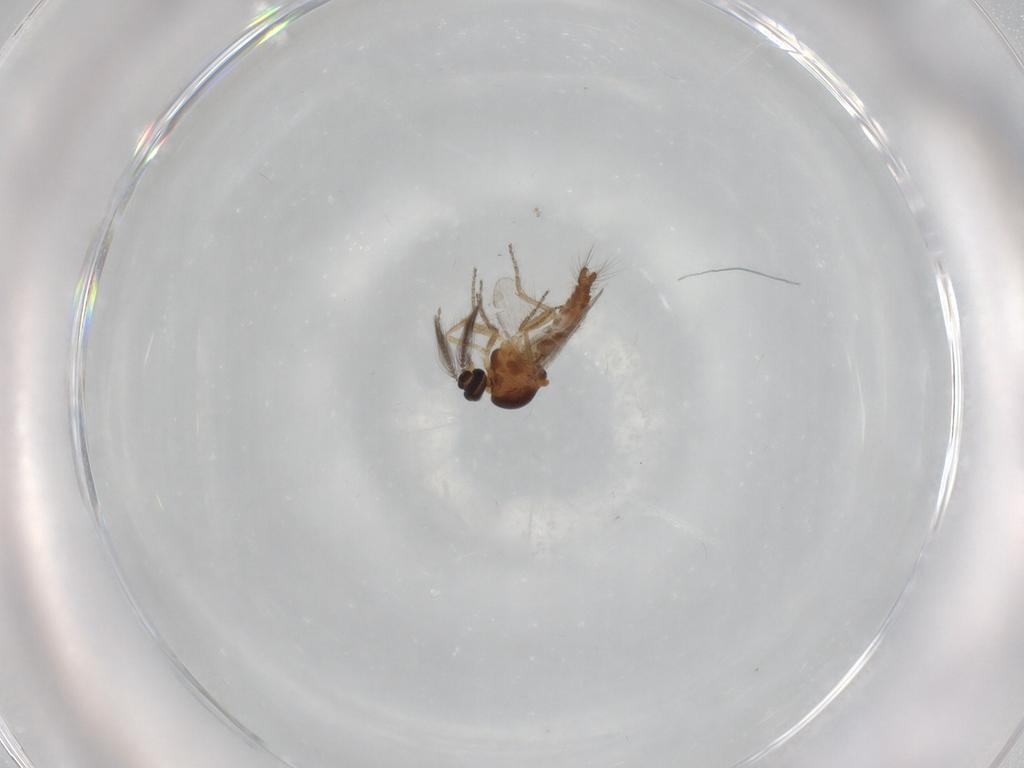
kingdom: Animalia
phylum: Arthropoda
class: Insecta
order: Diptera
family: Ceratopogonidae
